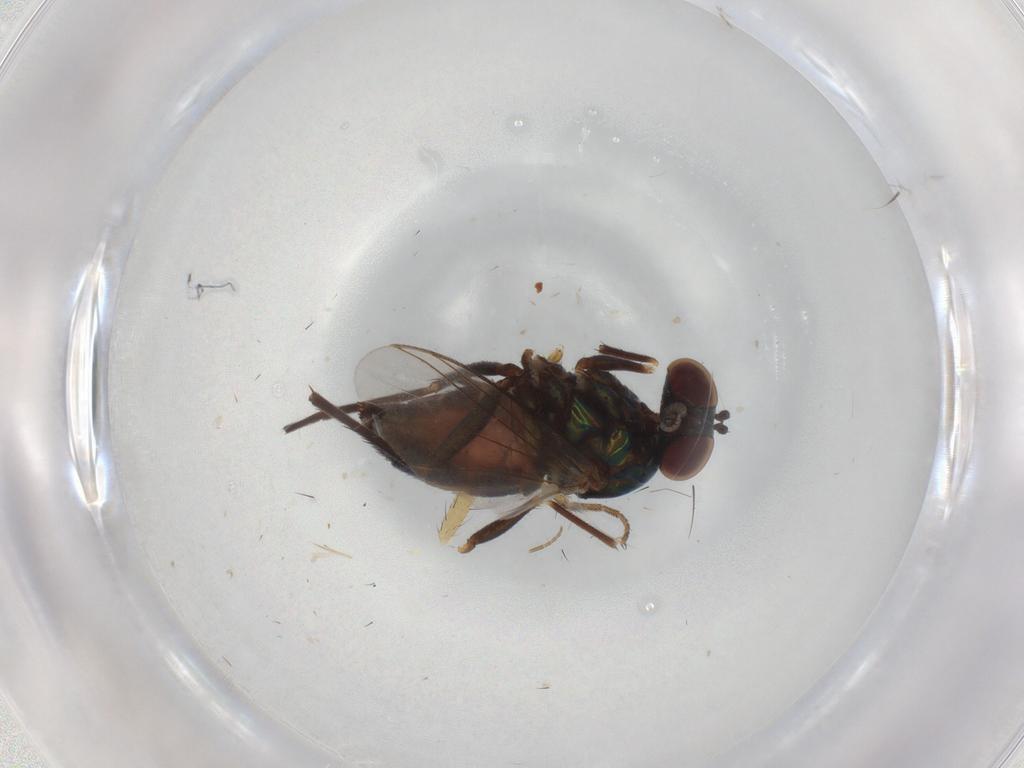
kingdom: Animalia
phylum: Arthropoda
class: Insecta
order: Diptera
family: Dolichopodidae
